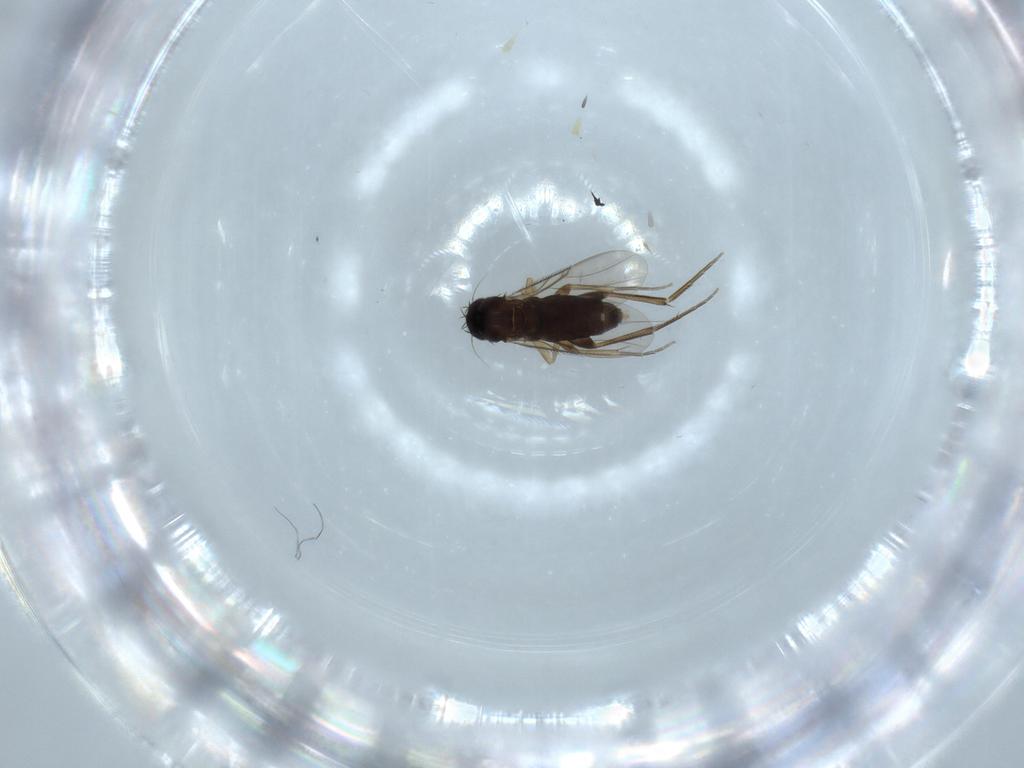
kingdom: Animalia
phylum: Arthropoda
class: Insecta
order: Diptera
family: Phoridae
